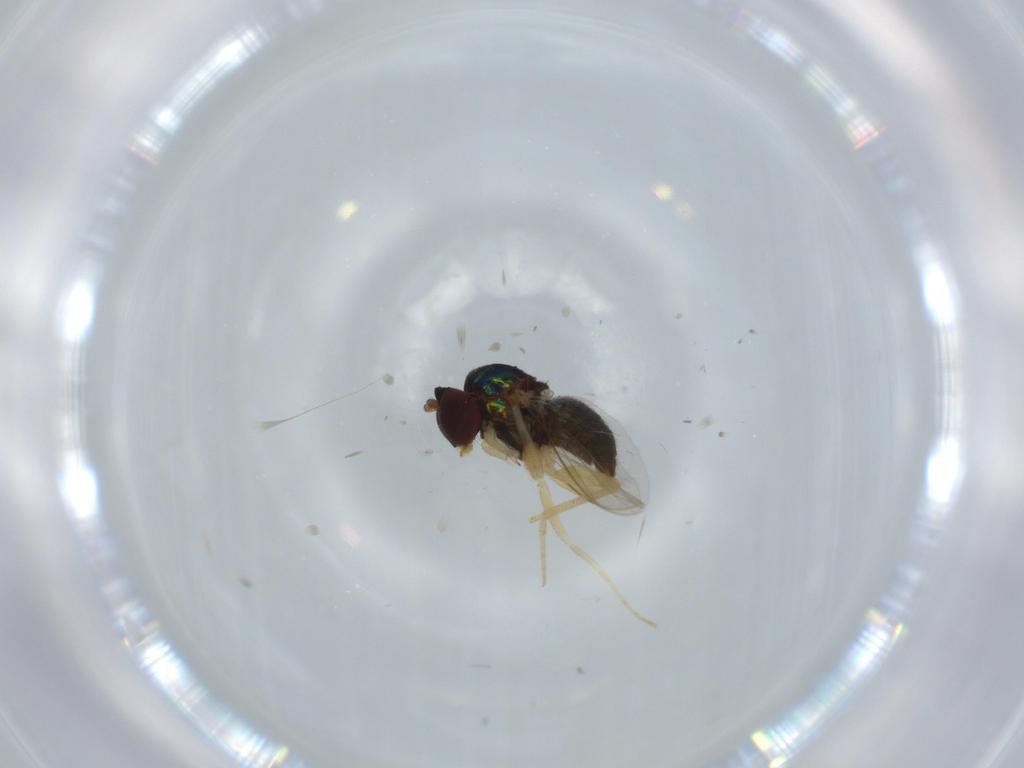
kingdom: Animalia
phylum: Arthropoda
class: Insecta
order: Diptera
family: Dolichopodidae
